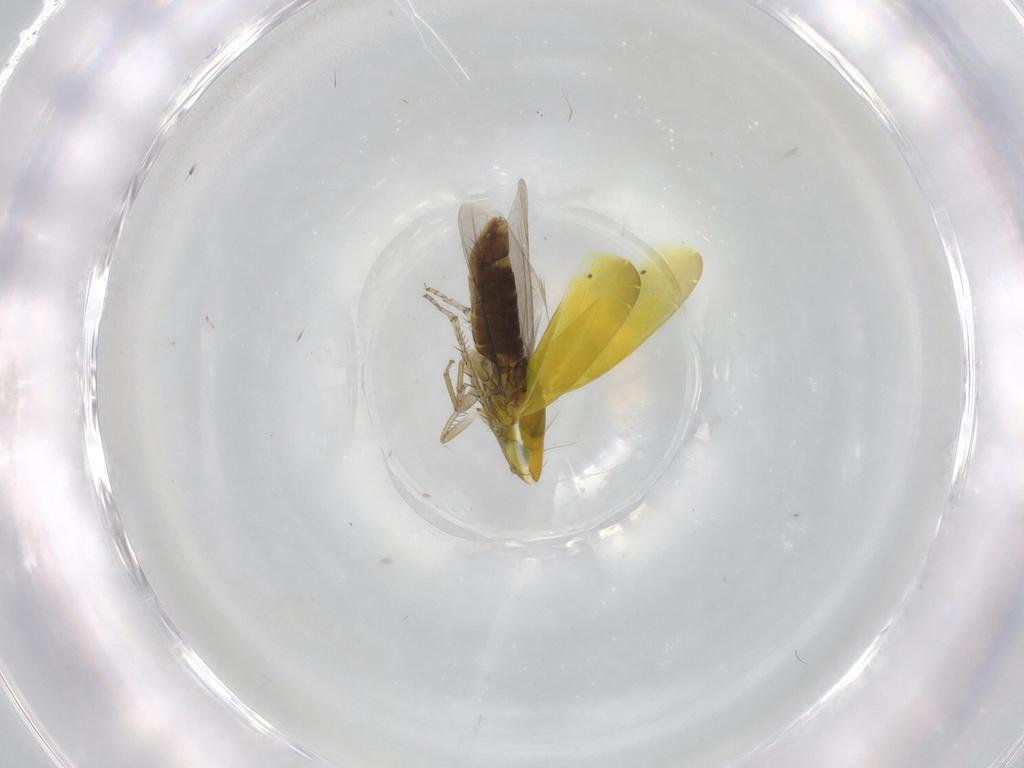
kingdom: Animalia
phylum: Arthropoda
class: Insecta
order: Hemiptera
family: Cicadellidae
